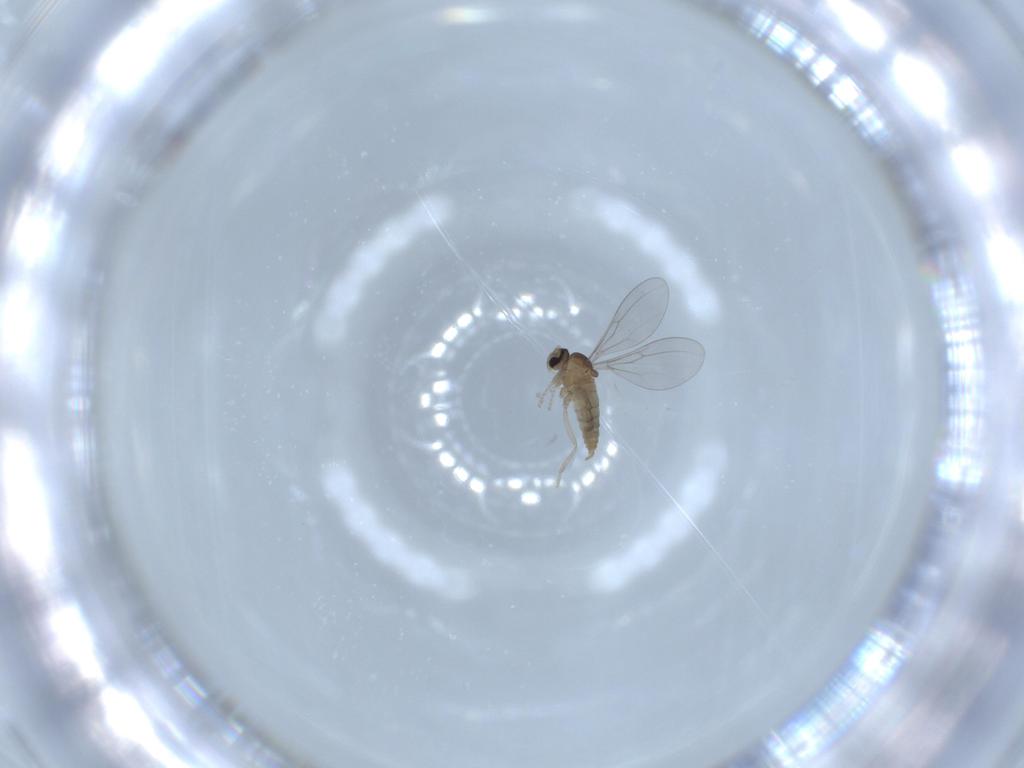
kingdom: Animalia
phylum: Arthropoda
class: Insecta
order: Diptera
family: Cecidomyiidae
